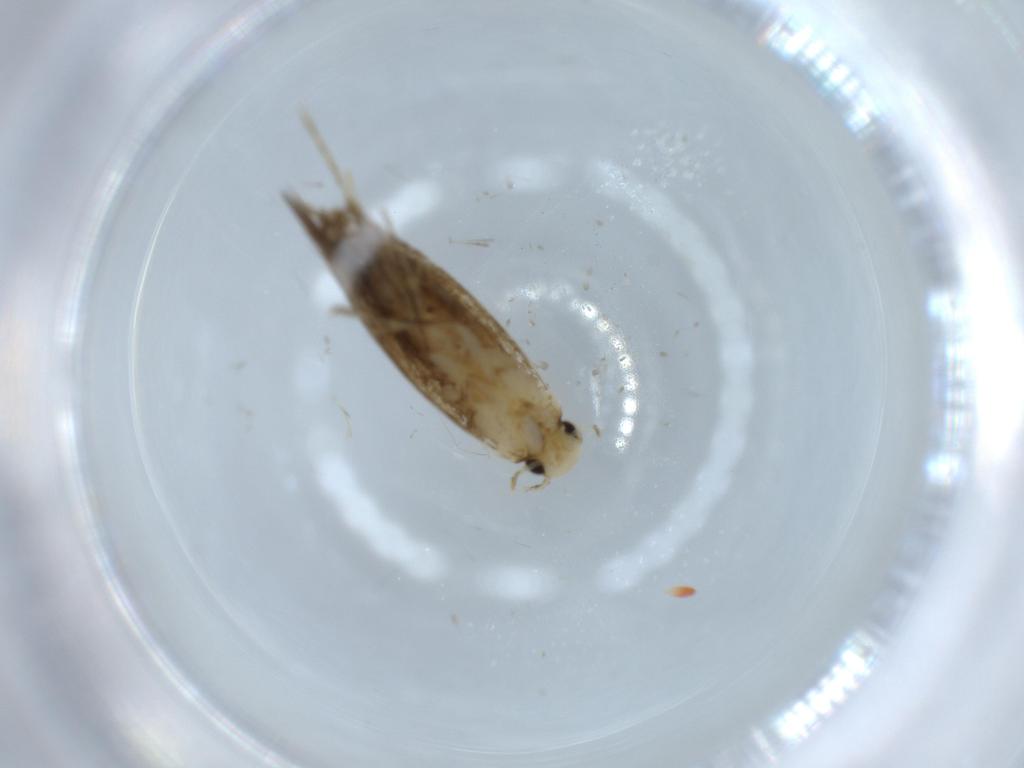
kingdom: Animalia
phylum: Arthropoda
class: Insecta
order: Lepidoptera
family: Tineidae
